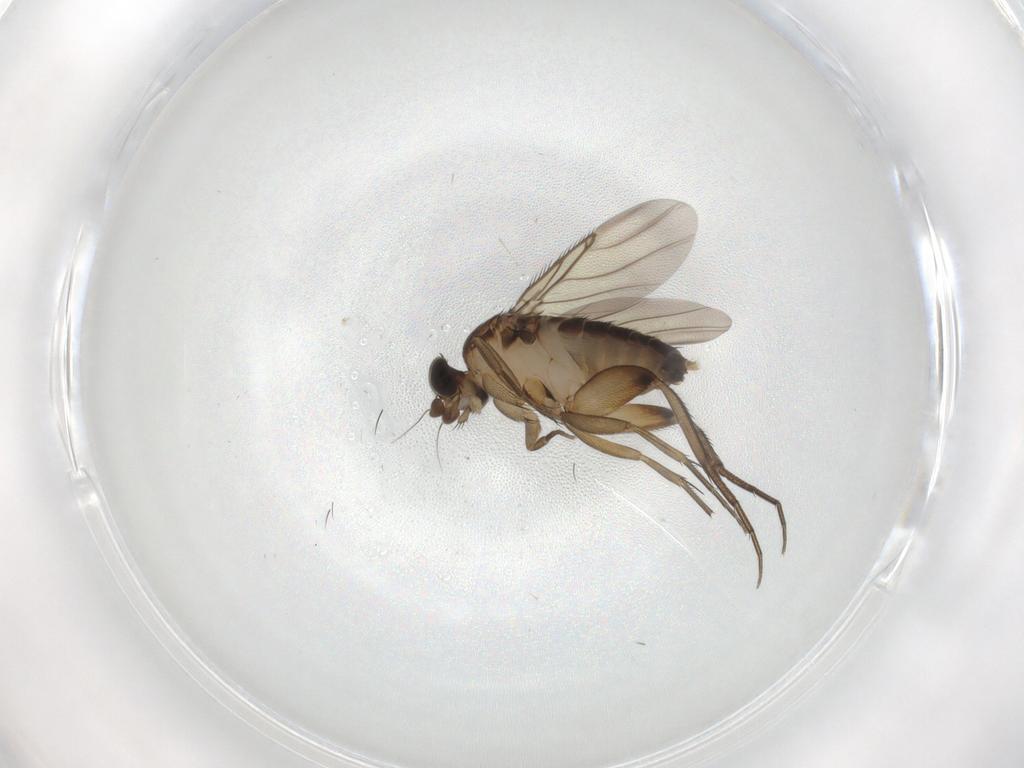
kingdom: Animalia
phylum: Arthropoda
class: Insecta
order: Diptera
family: Phoridae
